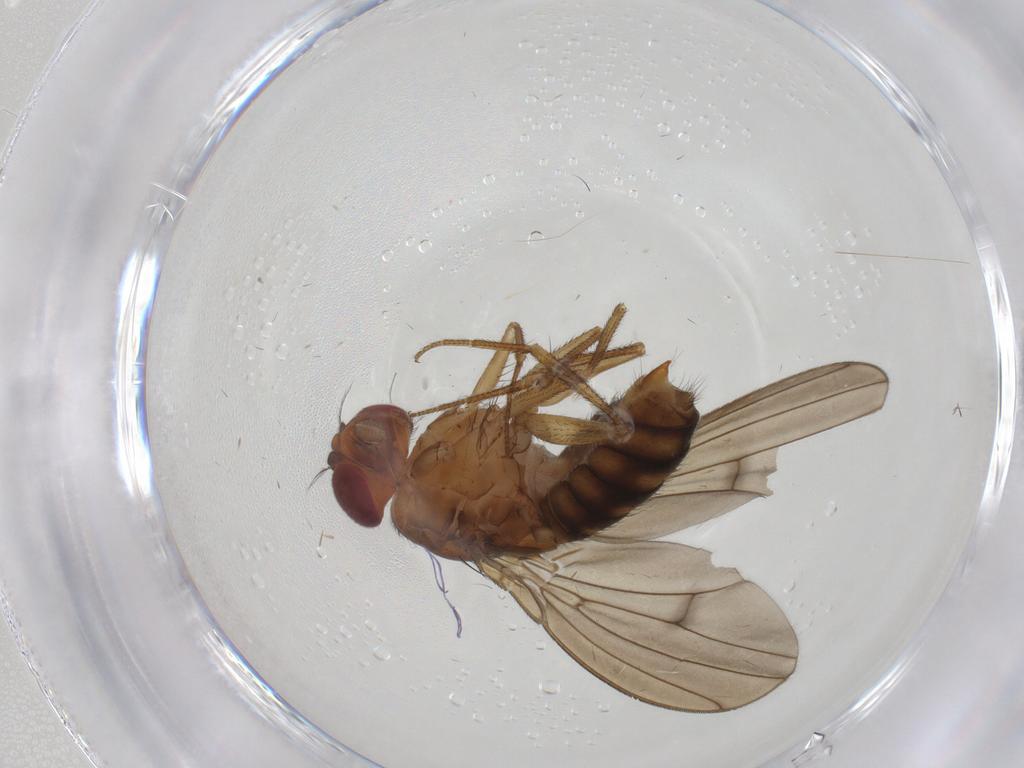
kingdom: Animalia
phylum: Arthropoda
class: Insecta
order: Diptera
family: Drosophilidae
